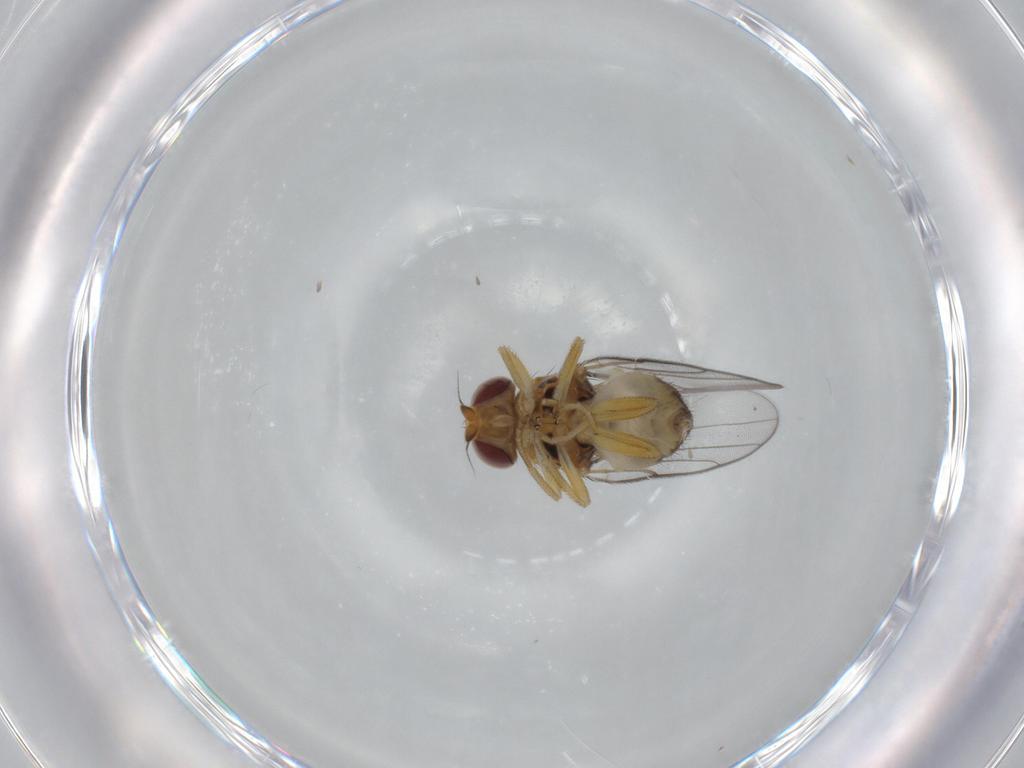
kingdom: Animalia
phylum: Arthropoda
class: Insecta
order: Diptera
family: Chloropidae
